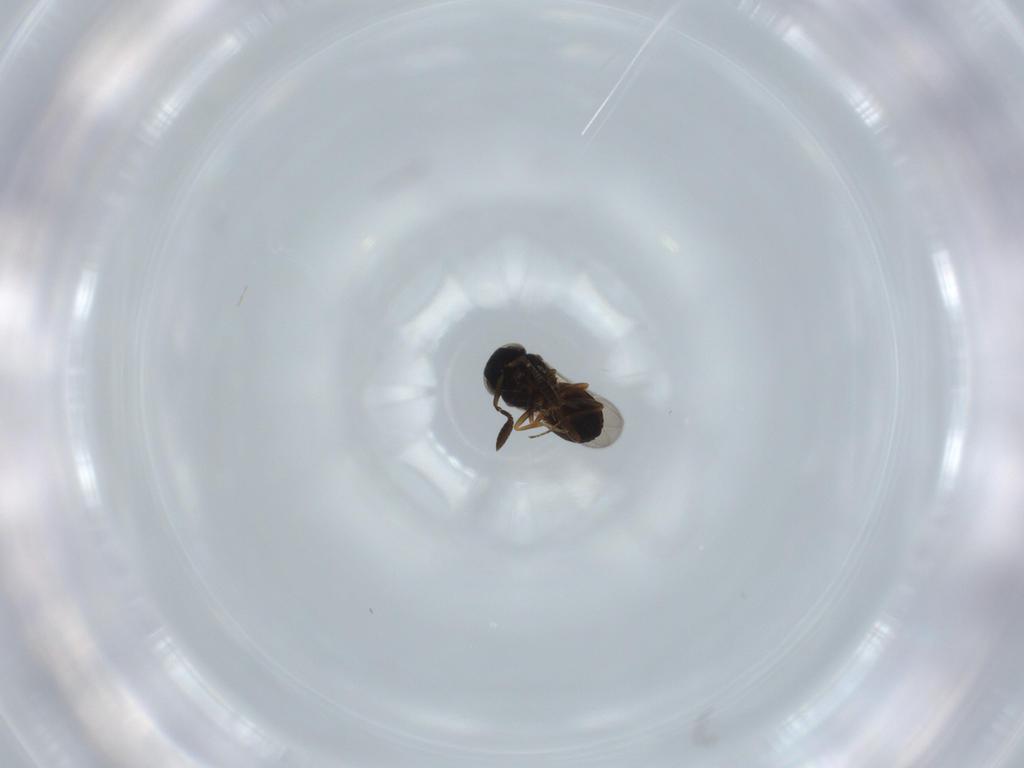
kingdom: Animalia
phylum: Arthropoda
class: Insecta
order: Hymenoptera
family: Scelionidae
